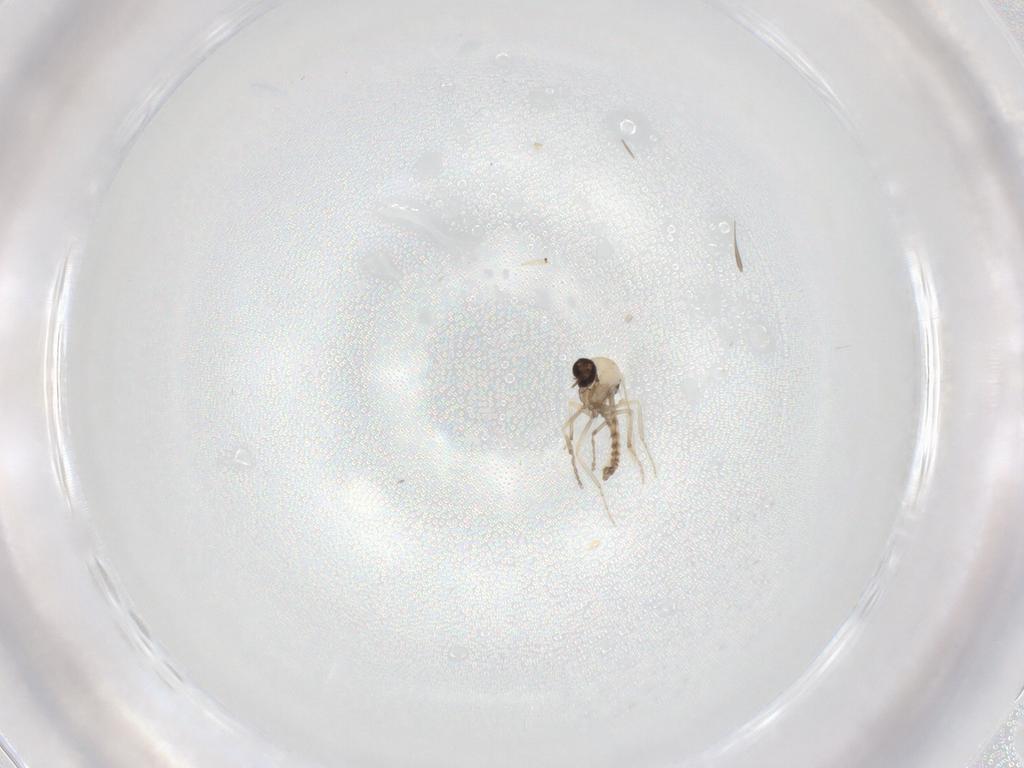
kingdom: Animalia
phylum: Arthropoda
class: Insecta
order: Diptera
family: Ceratopogonidae
